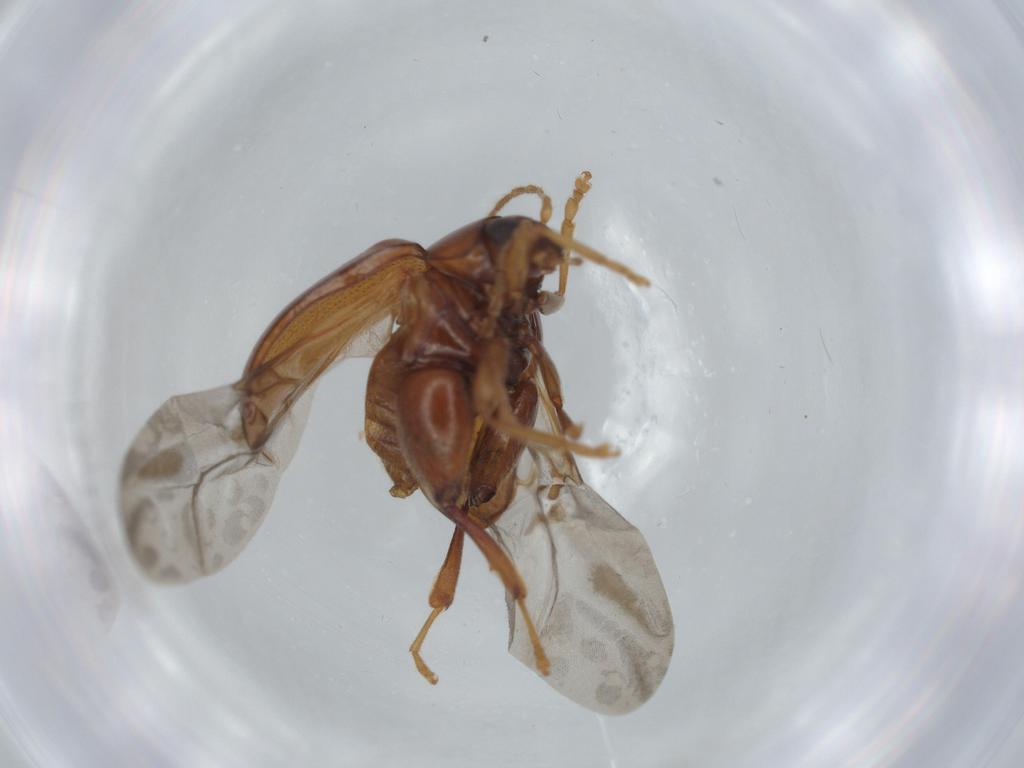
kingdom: Animalia
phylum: Arthropoda
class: Insecta
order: Coleoptera
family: Chrysomelidae
